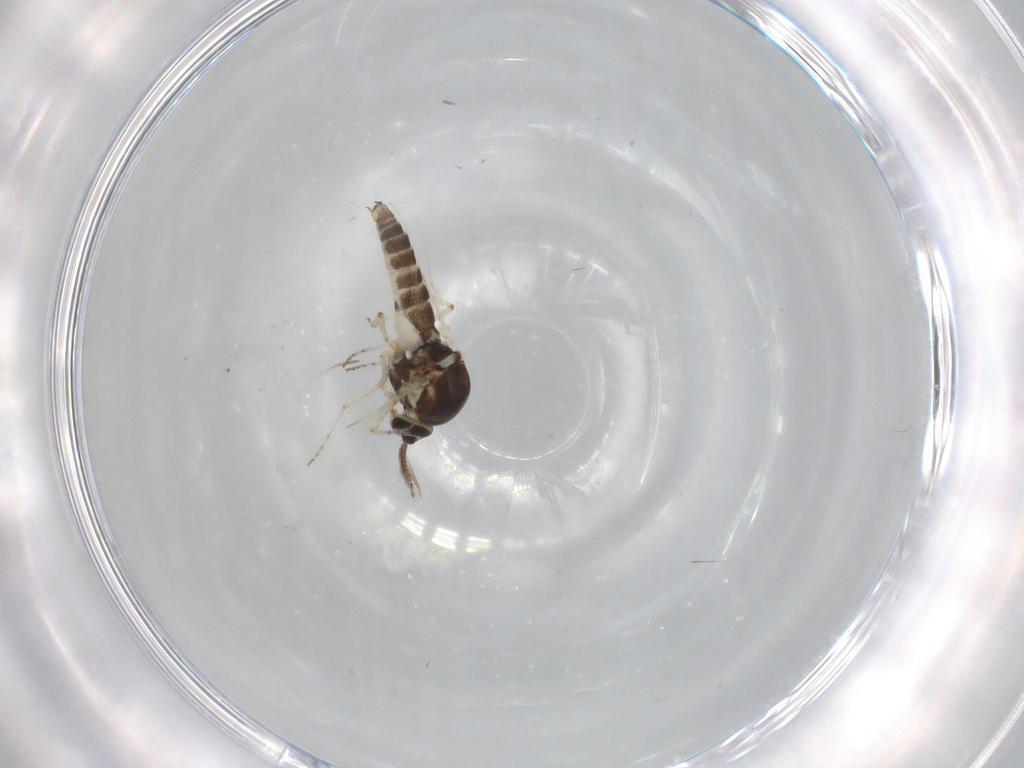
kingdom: Animalia
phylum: Arthropoda
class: Insecta
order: Diptera
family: Ceratopogonidae
